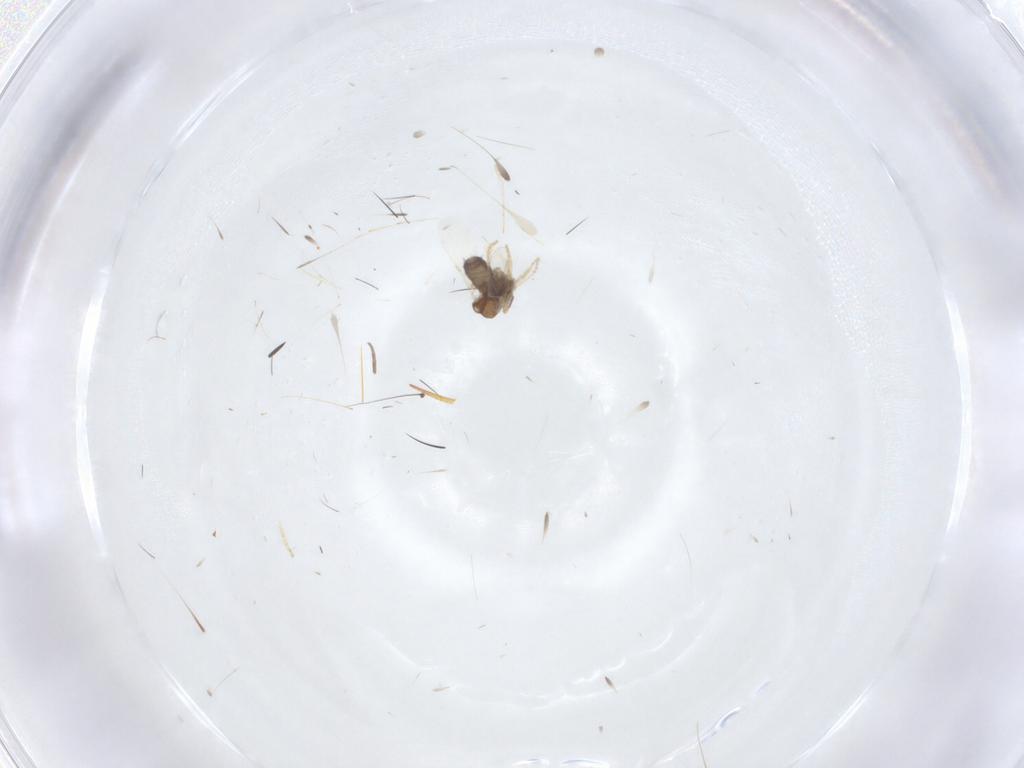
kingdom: Animalia
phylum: Arthropoda
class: Insecta
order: Diptera
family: Phoridae
